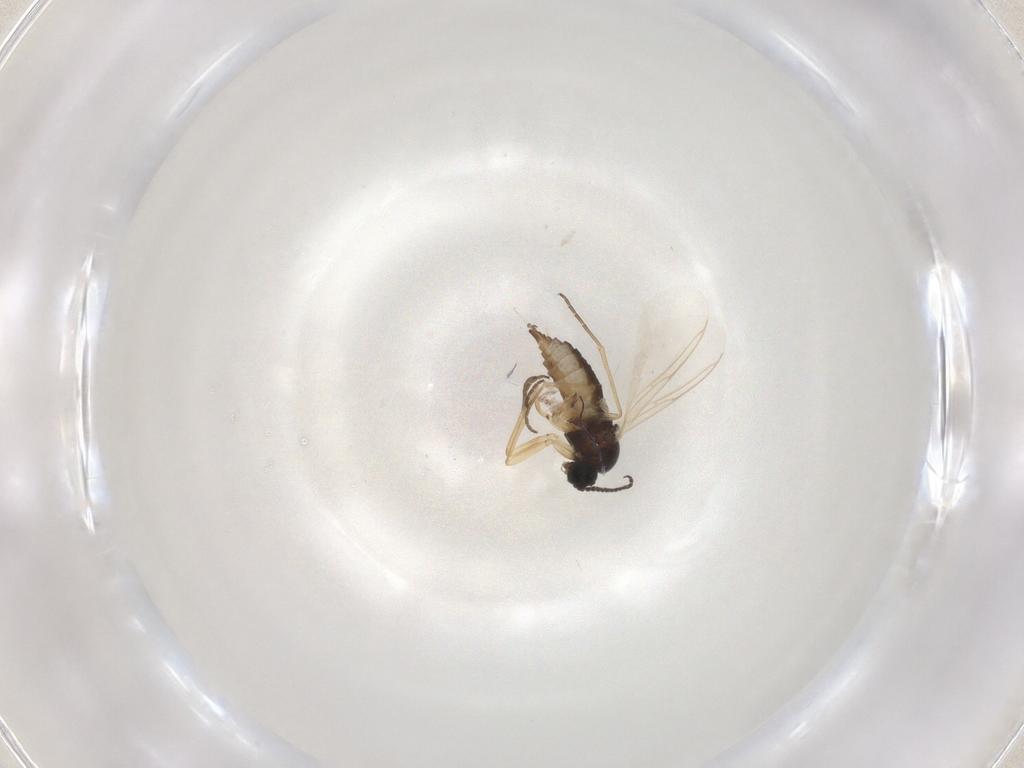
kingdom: Animalia
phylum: Arthropoda
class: Insecta
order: Diptera
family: Sciaridae
